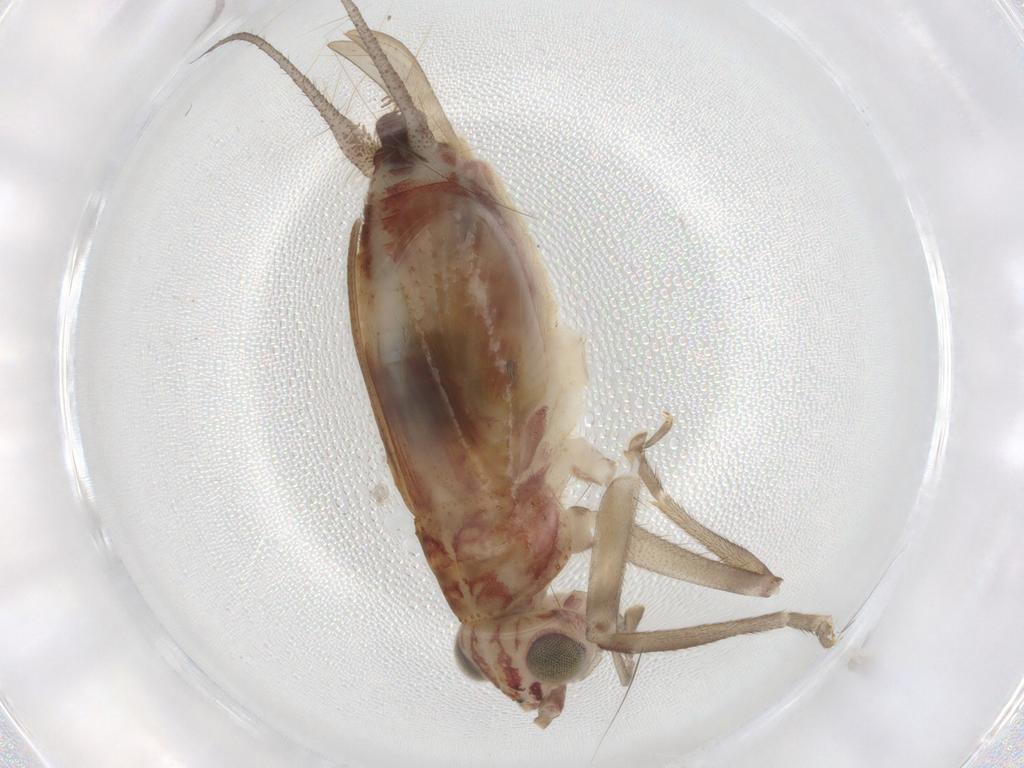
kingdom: Animalia
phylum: Arthropoda
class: Insecta
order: Orthoptera
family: Trigonidiidae
